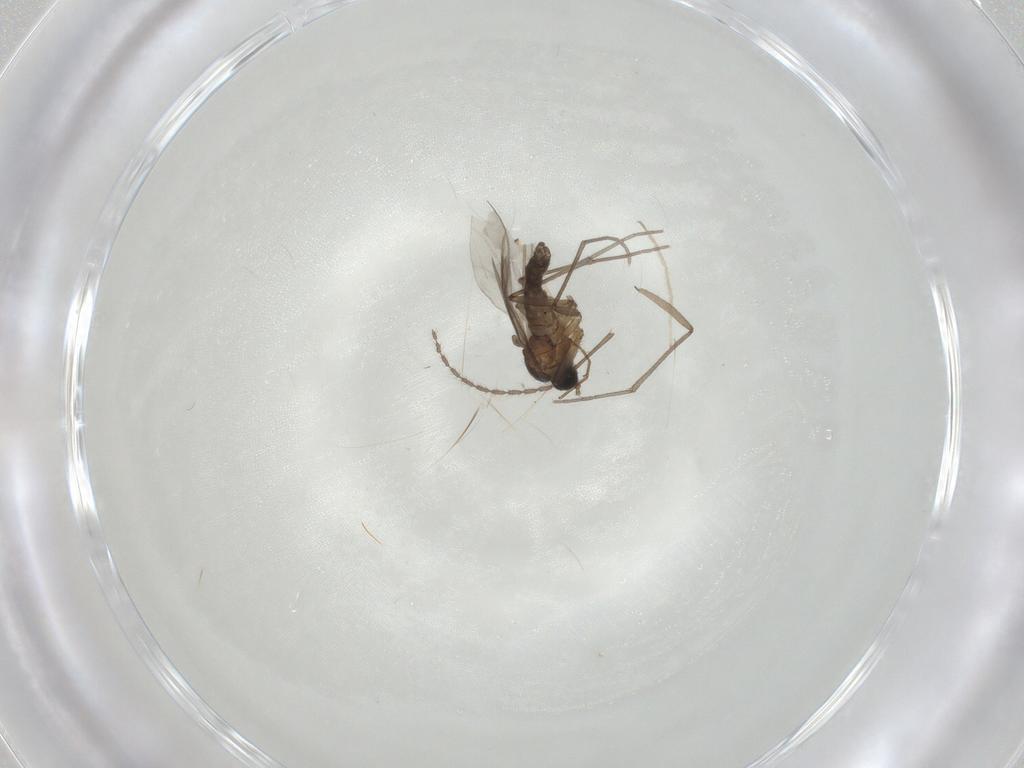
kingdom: Animalia
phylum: Arthropoda
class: Insecta
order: Diptera
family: Chironomidae
